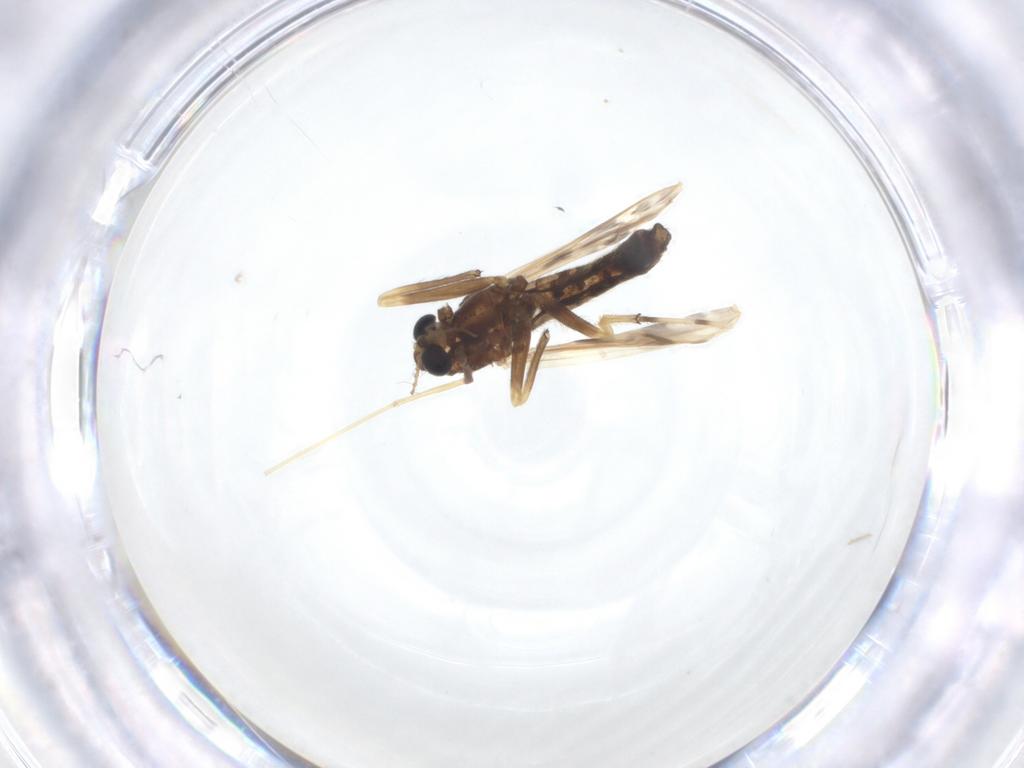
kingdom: Animalia
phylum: Arthropoda
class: Insecta
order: Diptera
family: Chironomidae
